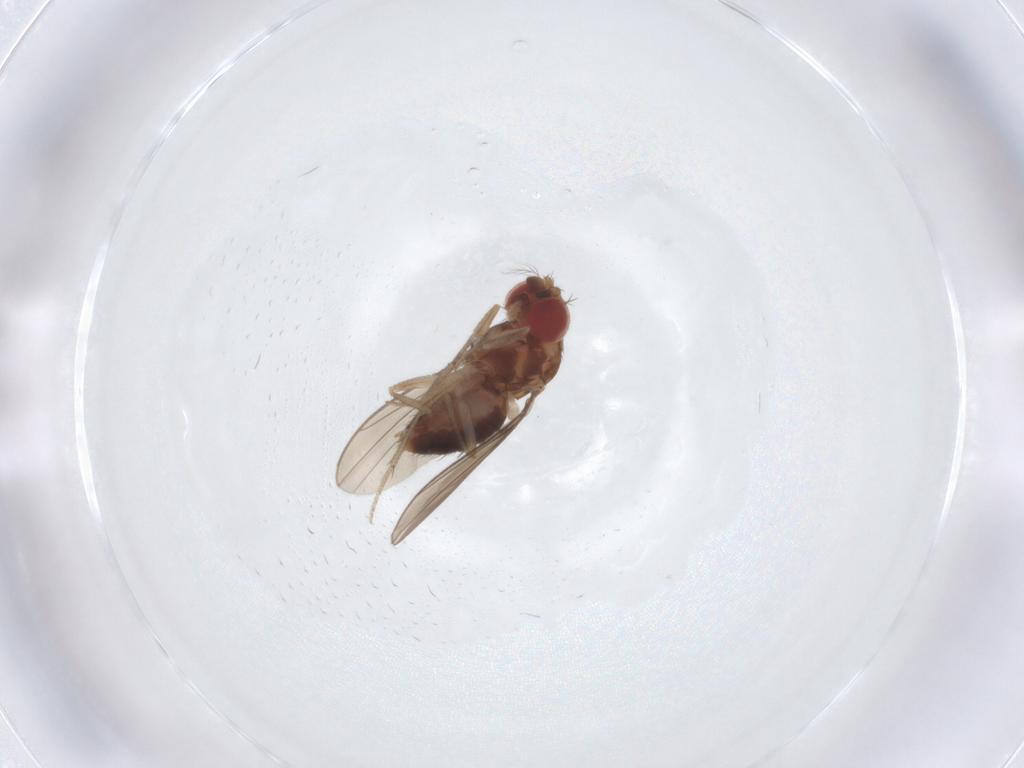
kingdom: Animalia
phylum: Arthropoda
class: Insecta
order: Diptera
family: Drosophilidae
